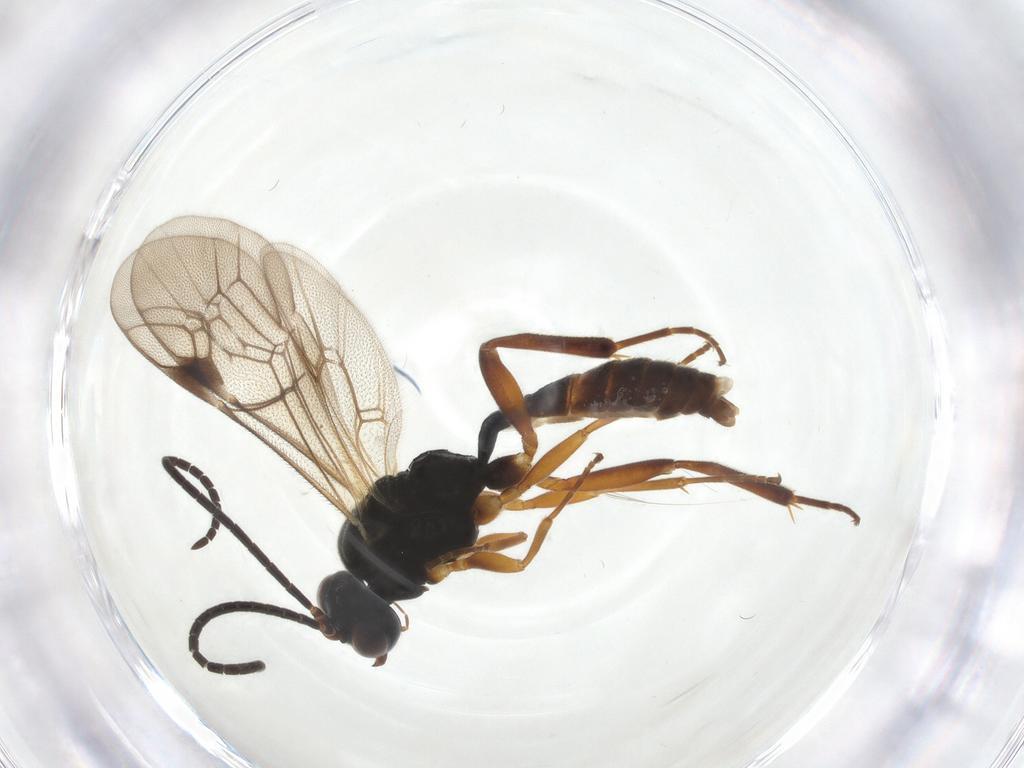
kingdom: Animalia
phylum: Arthropoda
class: Insecta
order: Hymenoptera
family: Ichneumonidae
